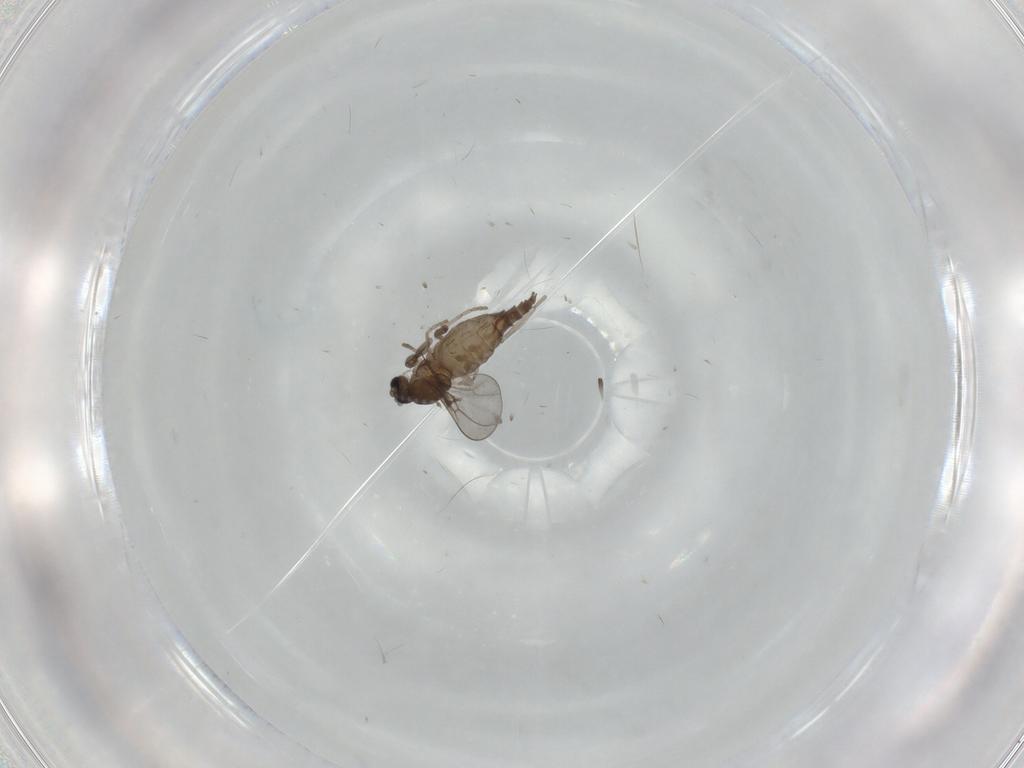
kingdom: Animalia
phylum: Arthropoda
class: Insecta
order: Diptera
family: Cecidomyiidae
